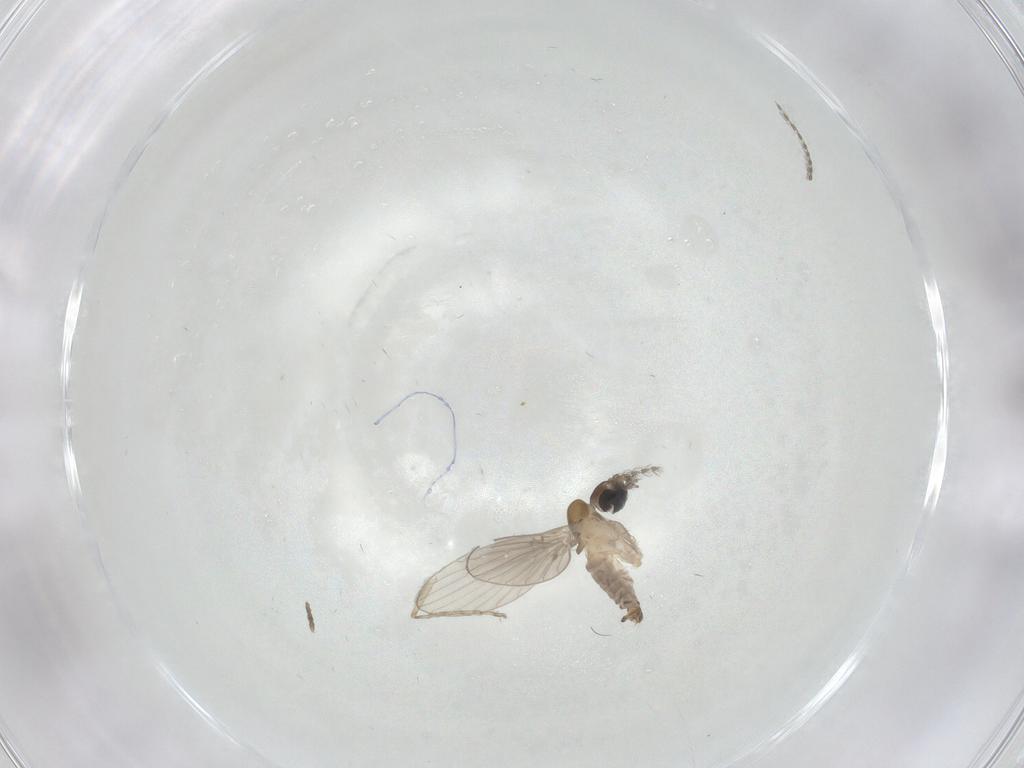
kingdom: Animalia
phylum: Arthropoda
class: Insecta
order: Diptera
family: Psychodidae
